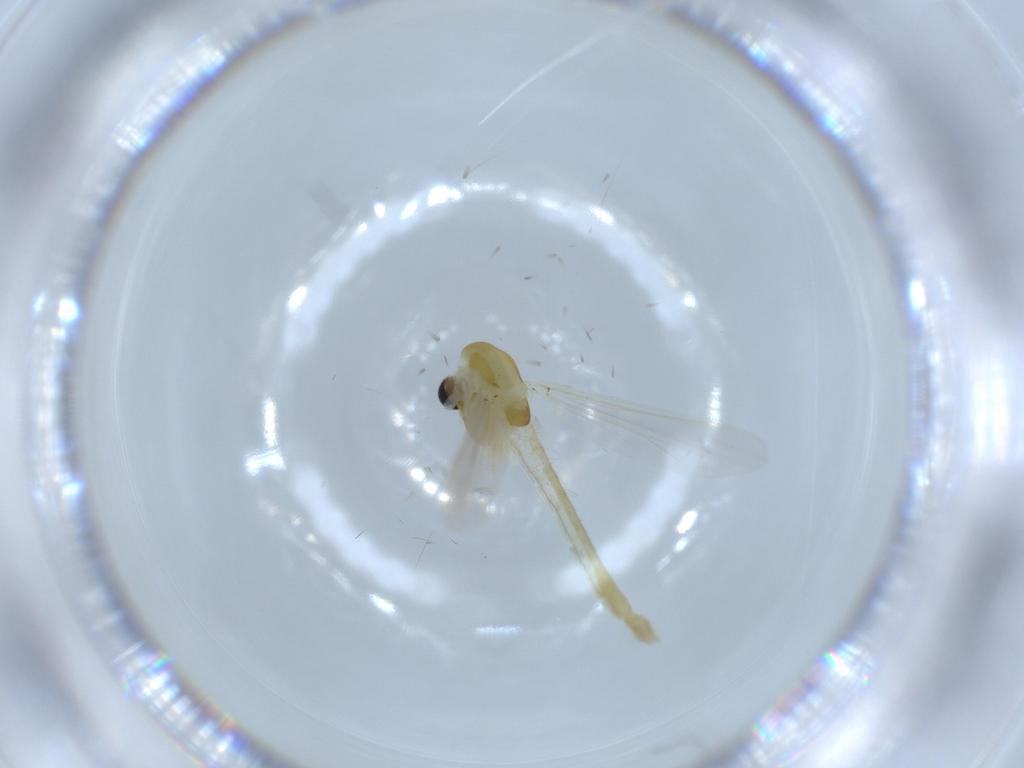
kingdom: Animalia
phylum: Arthropoda
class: Insecta
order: Diptera
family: Chironomidae
